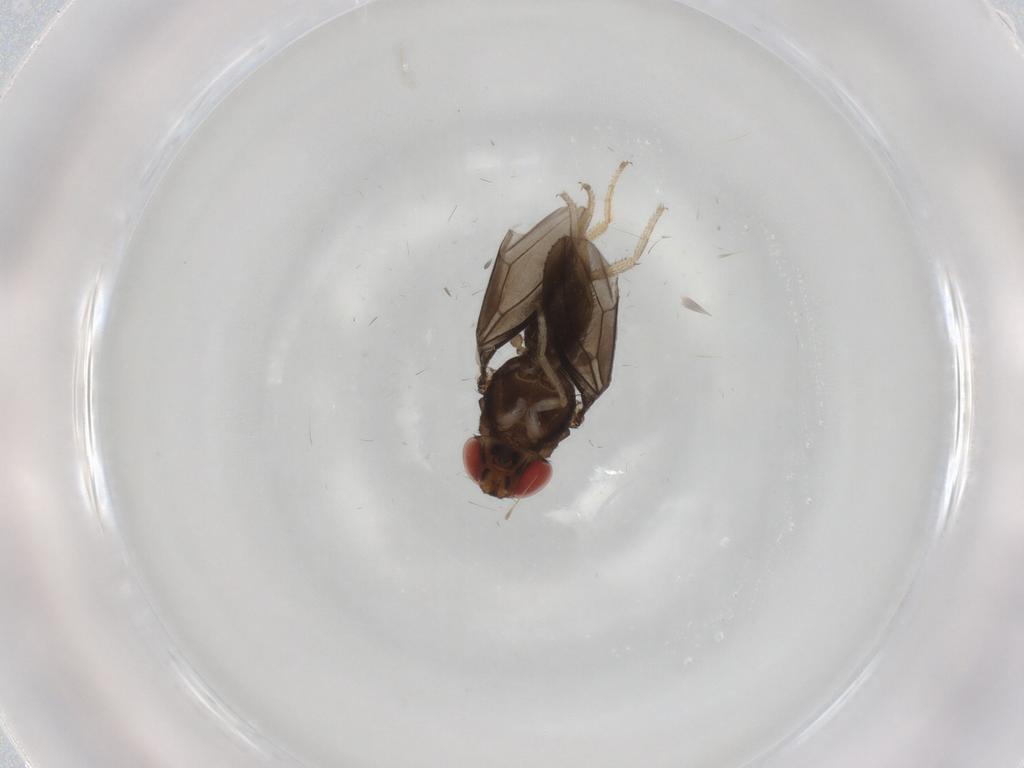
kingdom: Animalia
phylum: Arthropoda
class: Insecta
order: Diptera
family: Drosophilidae
